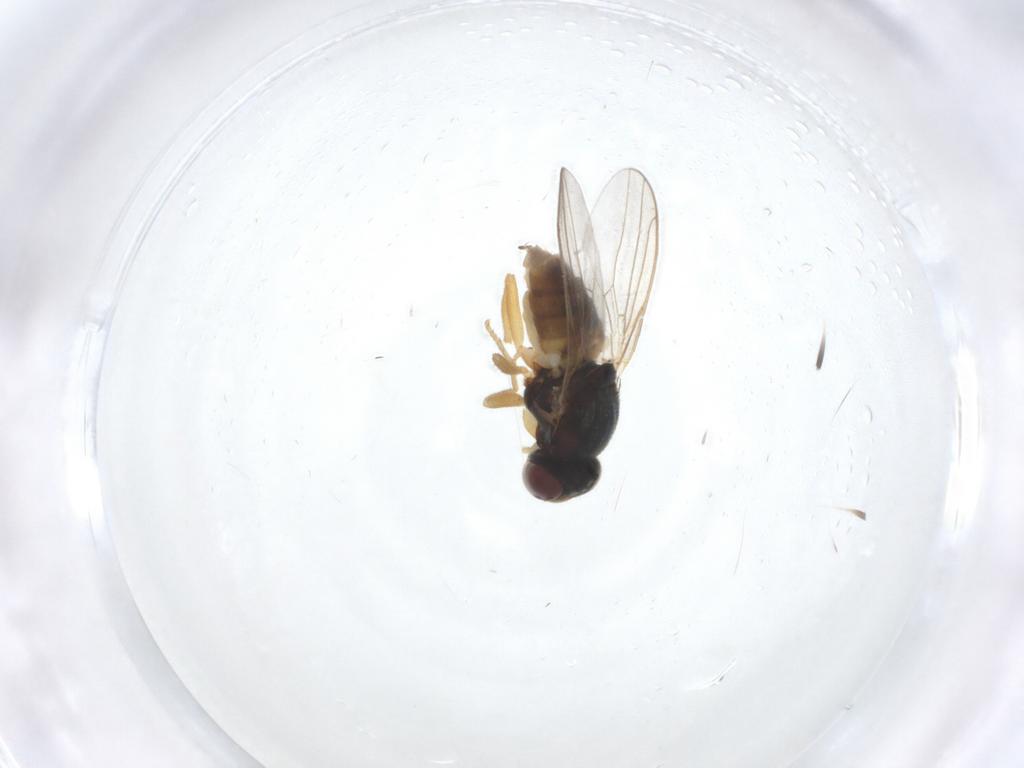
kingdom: Animalia
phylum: Arthropoda
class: Insecta
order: Diptera
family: Chloropidae
